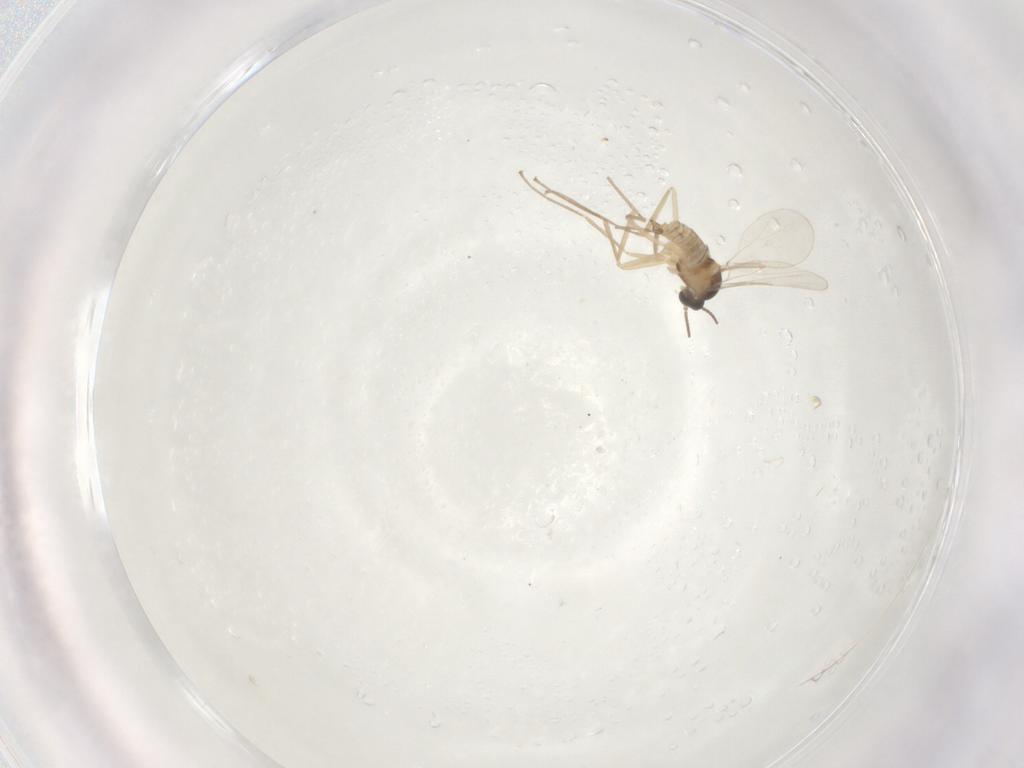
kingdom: Animalia
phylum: Arthropoda
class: Insecta
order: Diptera
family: Cecidomyiidae
